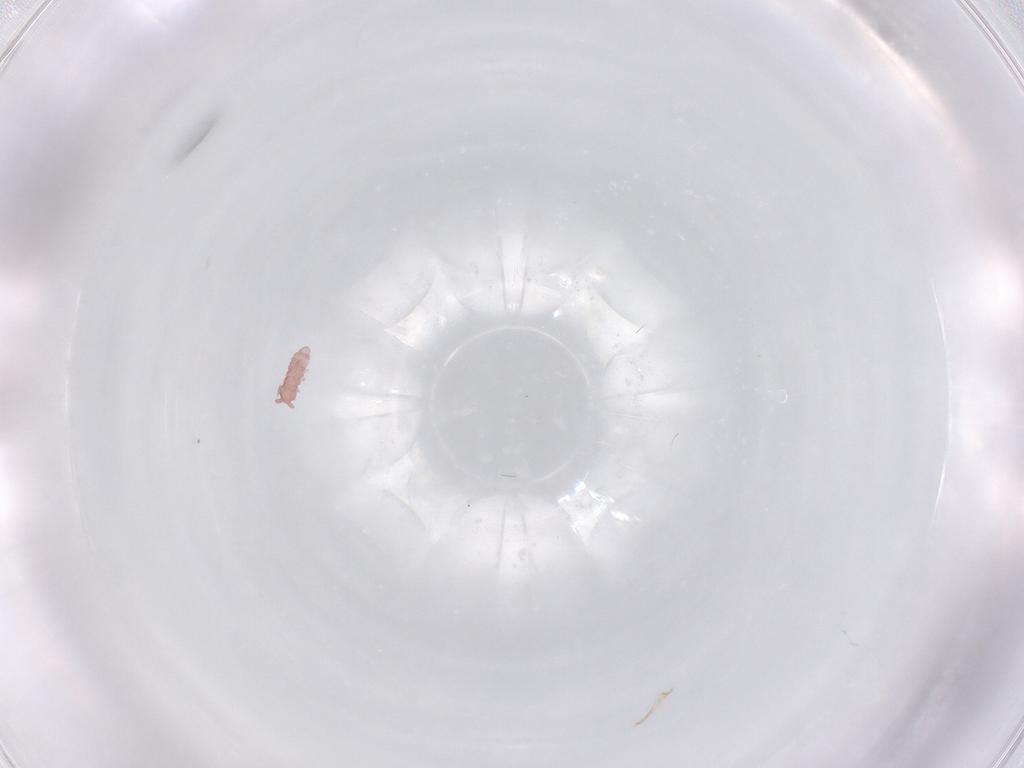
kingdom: Animalia
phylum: Arthropoda
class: Collembola
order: Poduromorpha
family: Hypogastruridae
